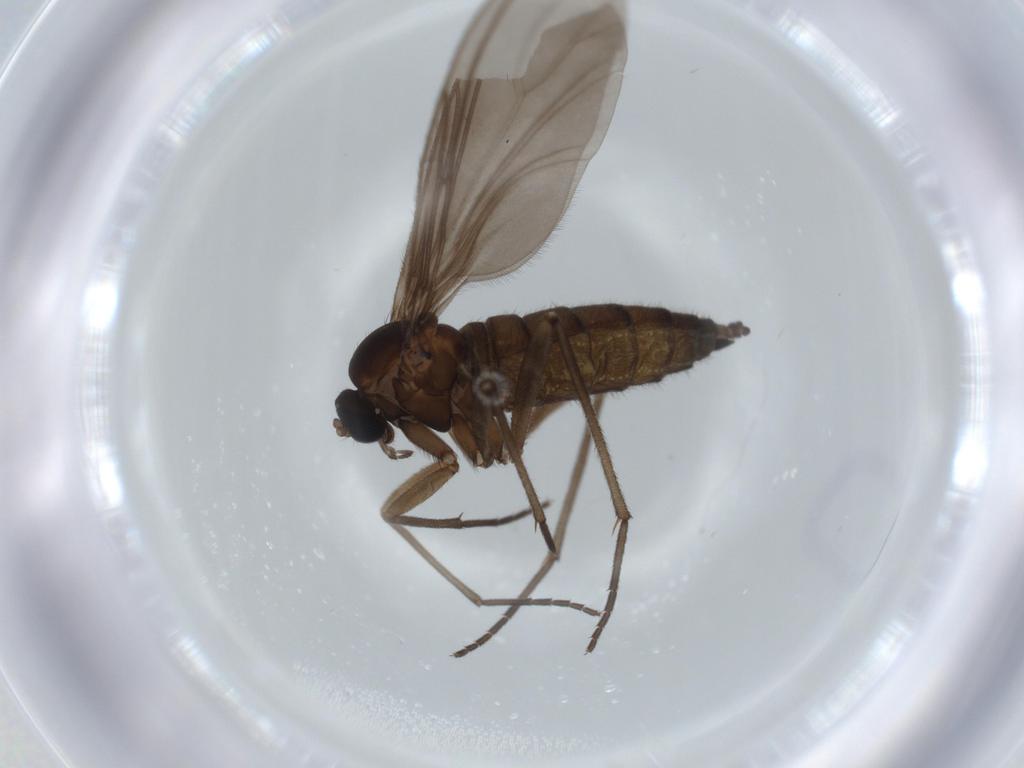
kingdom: Animalia
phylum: Arthropoda
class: Insecta
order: Diptera
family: Sciaridae
